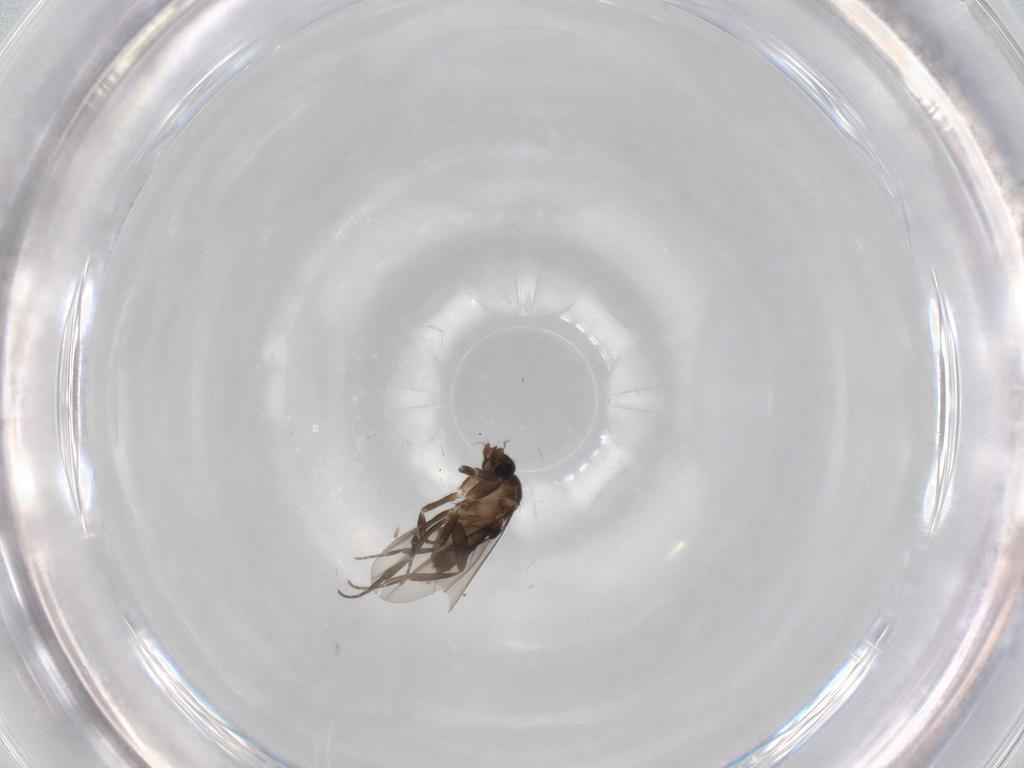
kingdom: Animalia
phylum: Arthropoda
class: Insecta
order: Diptera
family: Phoridae
